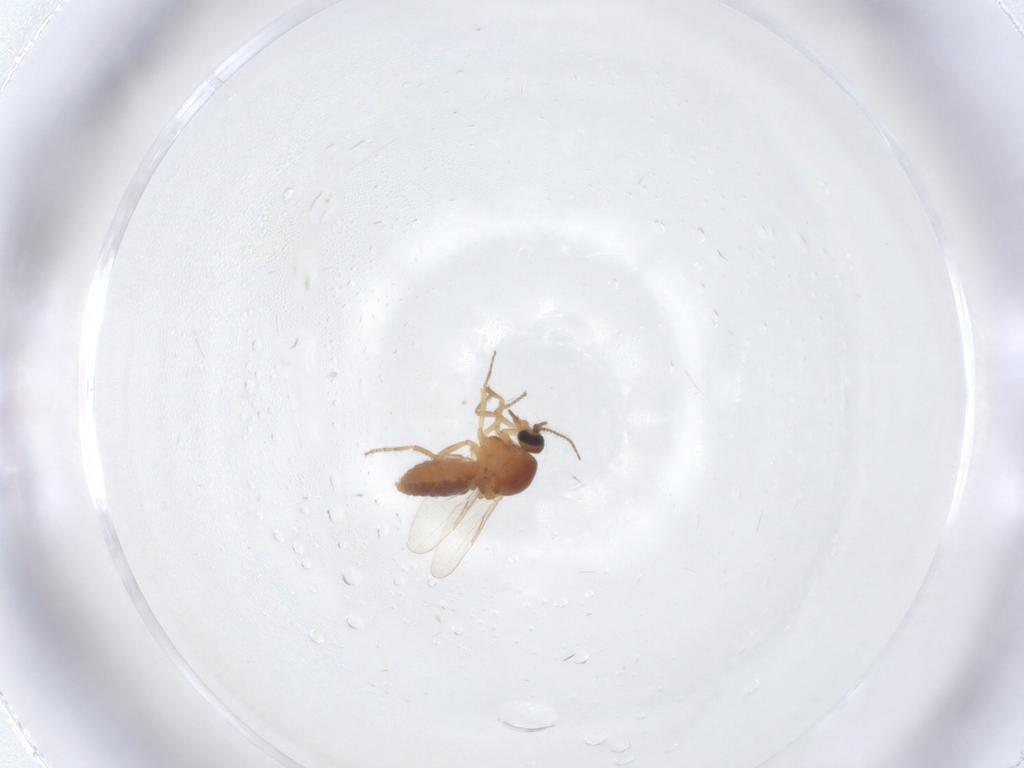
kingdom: Animalia
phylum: Arthropoda
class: Insecta
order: Diptera
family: Ceratopogonidae
